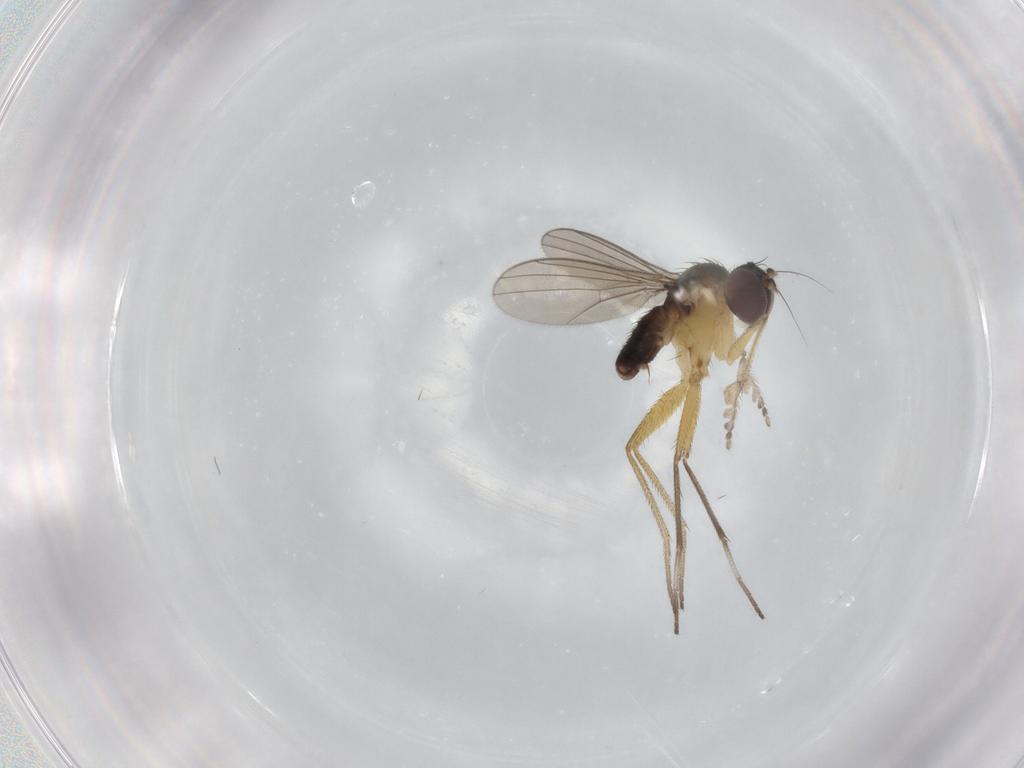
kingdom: Animalia
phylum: Arthropoda
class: Insecta
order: Diptera
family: Dolichopodidae
